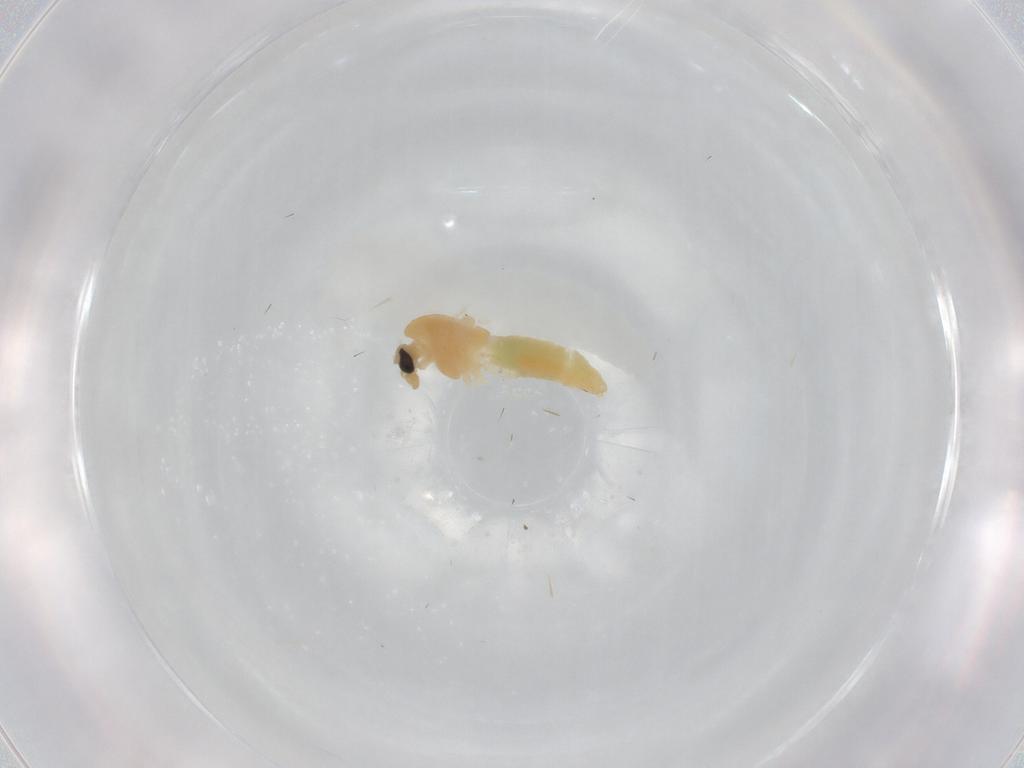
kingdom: Animalia
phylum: Arthropoda
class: Insecta
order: Diptera
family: Chironomidae
